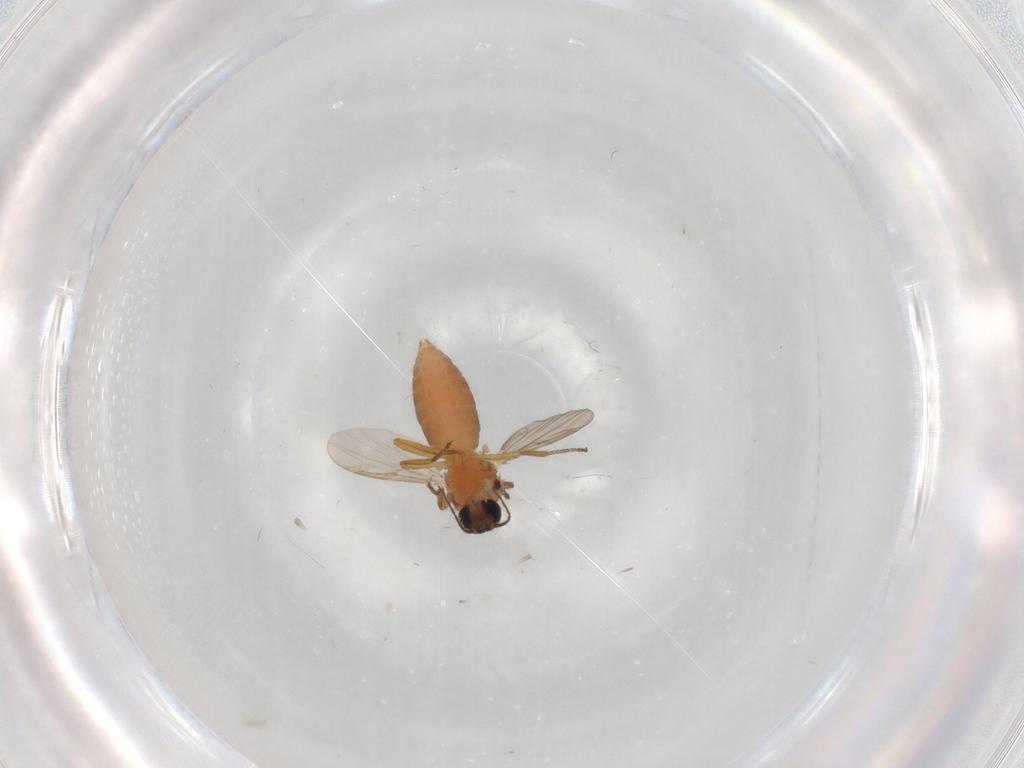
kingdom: Animalia
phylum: Arthropoda
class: Insecta
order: Diptera
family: Ceratopogonidae
